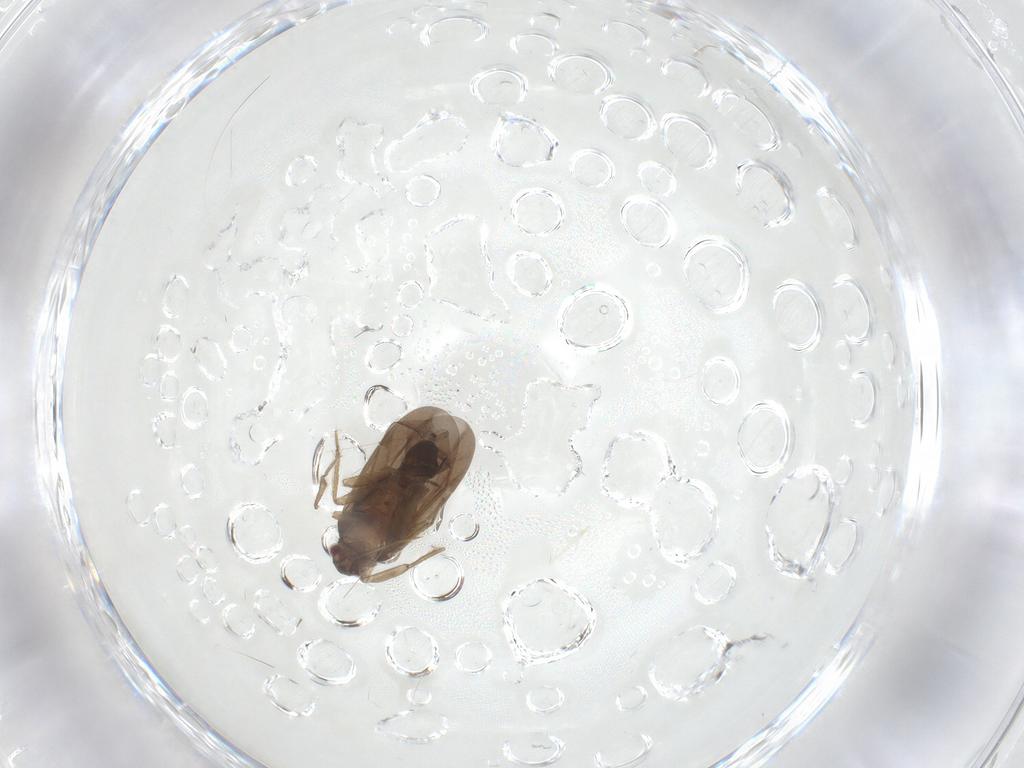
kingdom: Animalia
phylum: Arthropoda
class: Insecta
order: Hemiptera
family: Ceratocombidae
